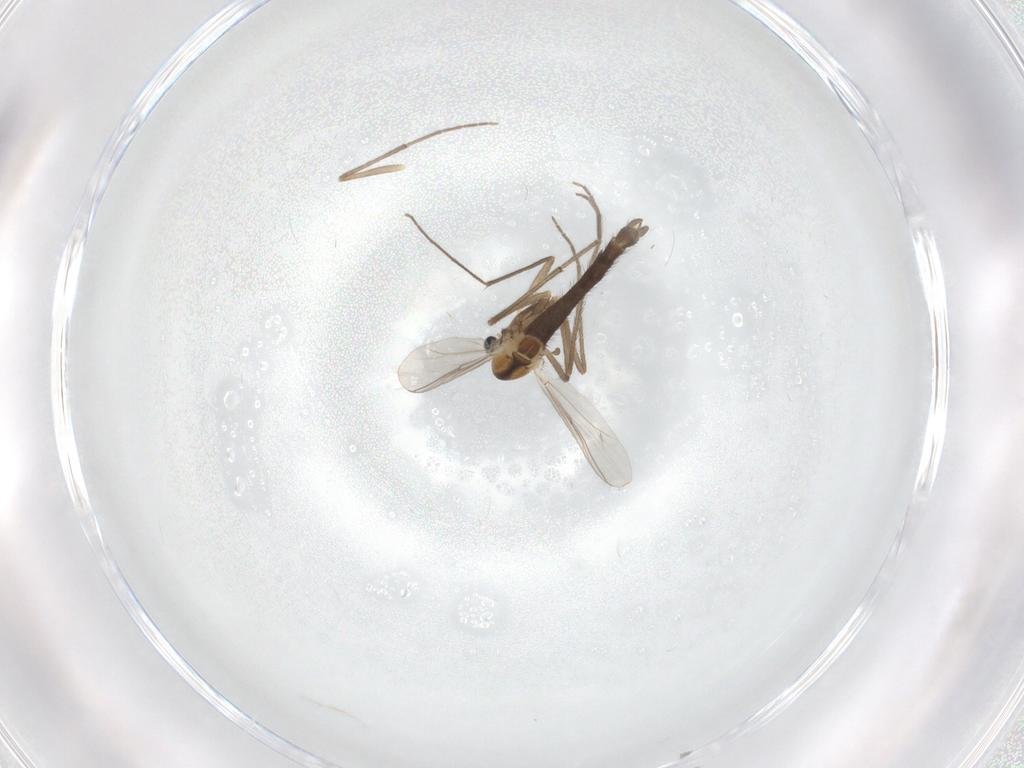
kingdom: Animalia
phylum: Arthropoda
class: Insecta
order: Diptera
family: Chironomidae
